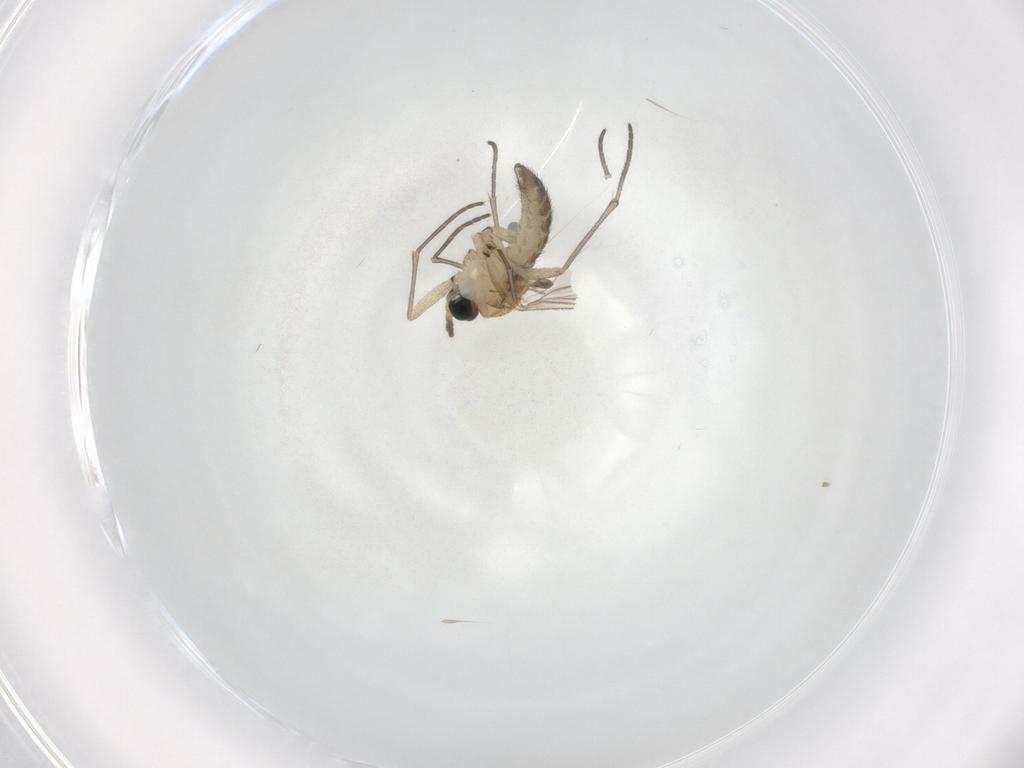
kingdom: Animalia
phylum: Arthropoda
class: Insecta
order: Diptera
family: Cecidomyiidae
